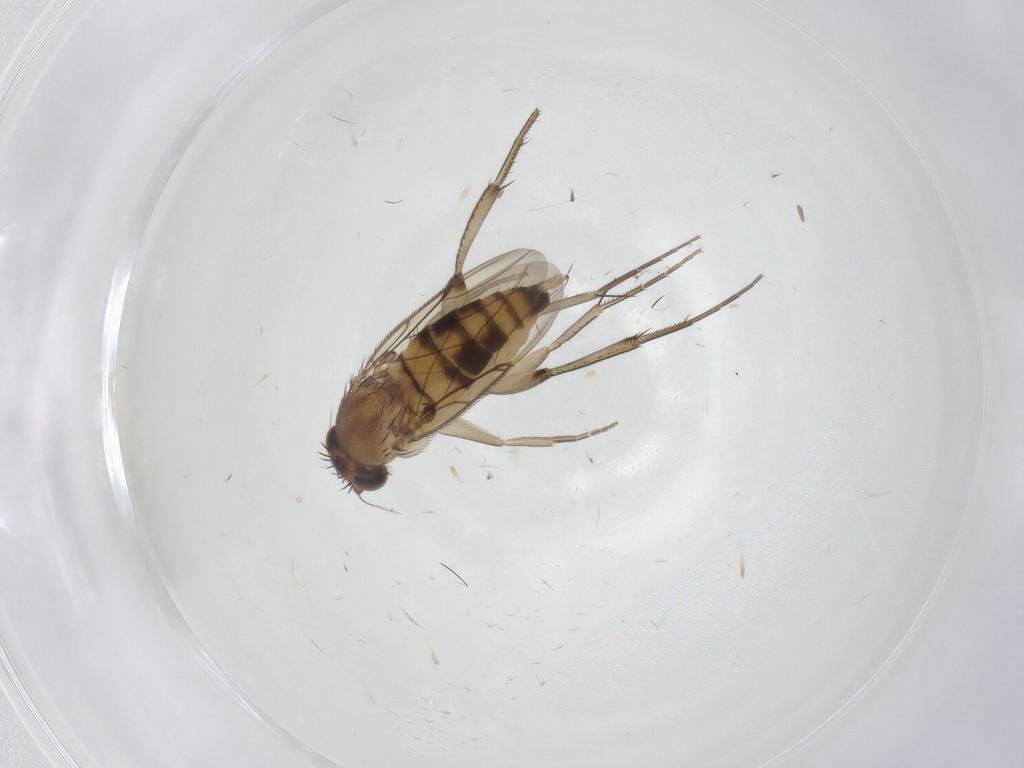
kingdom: Animalia
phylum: Arthropoda
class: Insecta
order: Diptera
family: Phoridae
